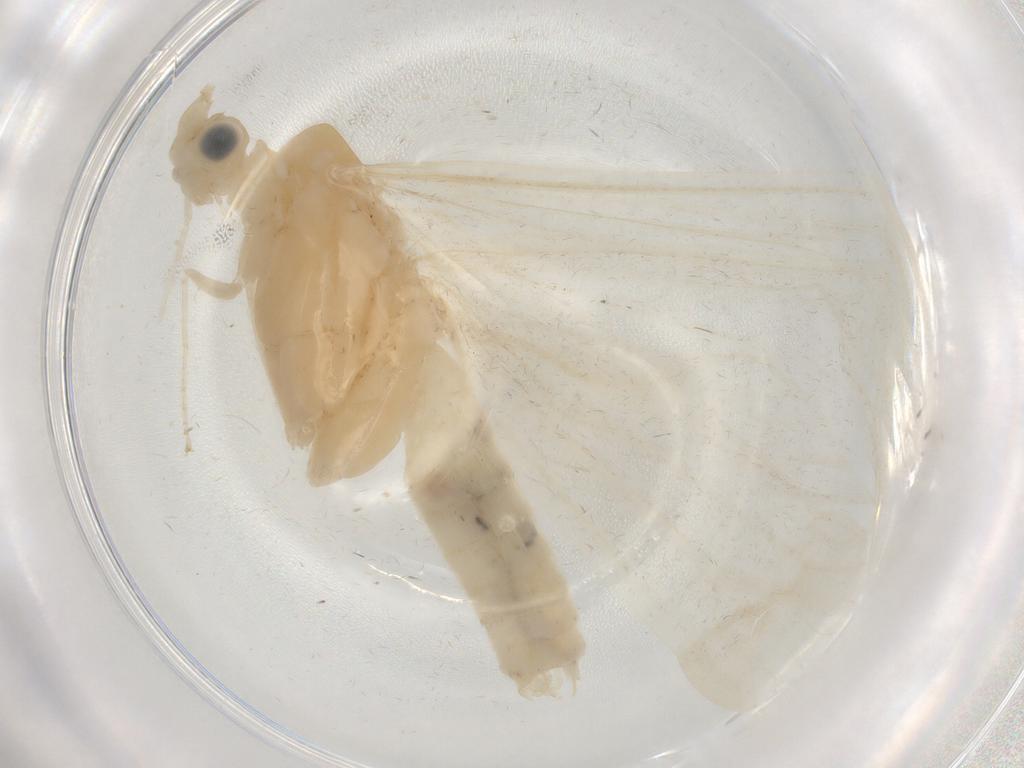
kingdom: Animalia
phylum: Arthropoda
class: Insecta
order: Trichoptera
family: Leptoceridae
